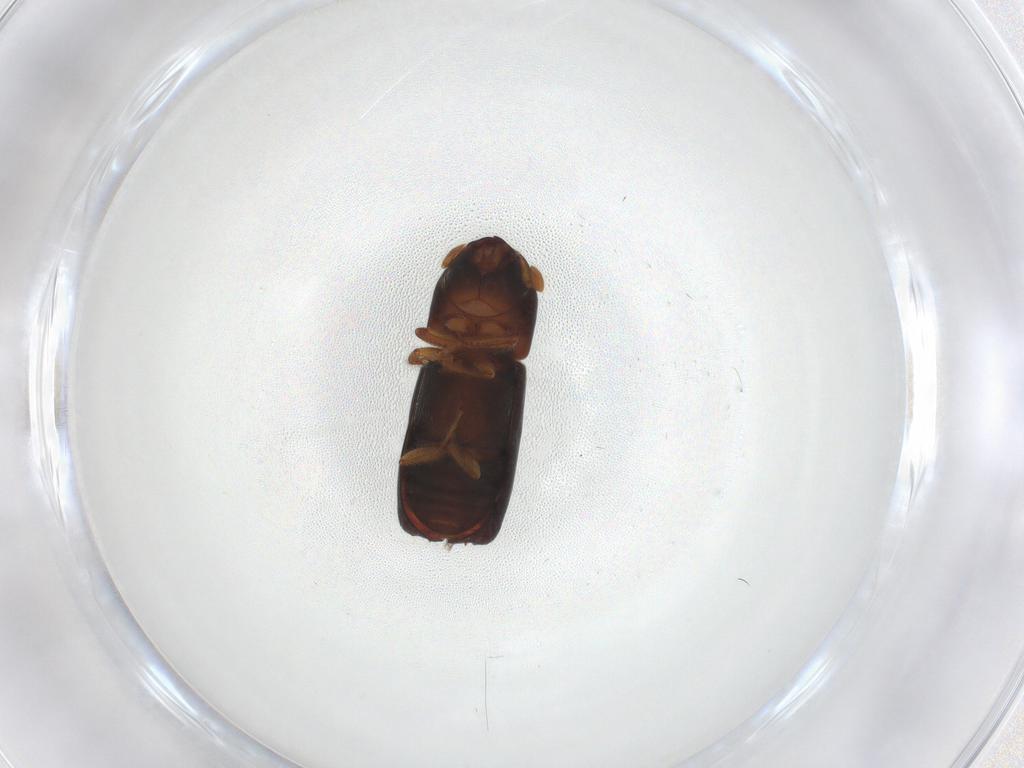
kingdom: Animalia
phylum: Arthropoda
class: Insecta
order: Coleoptera
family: Curculionidae
